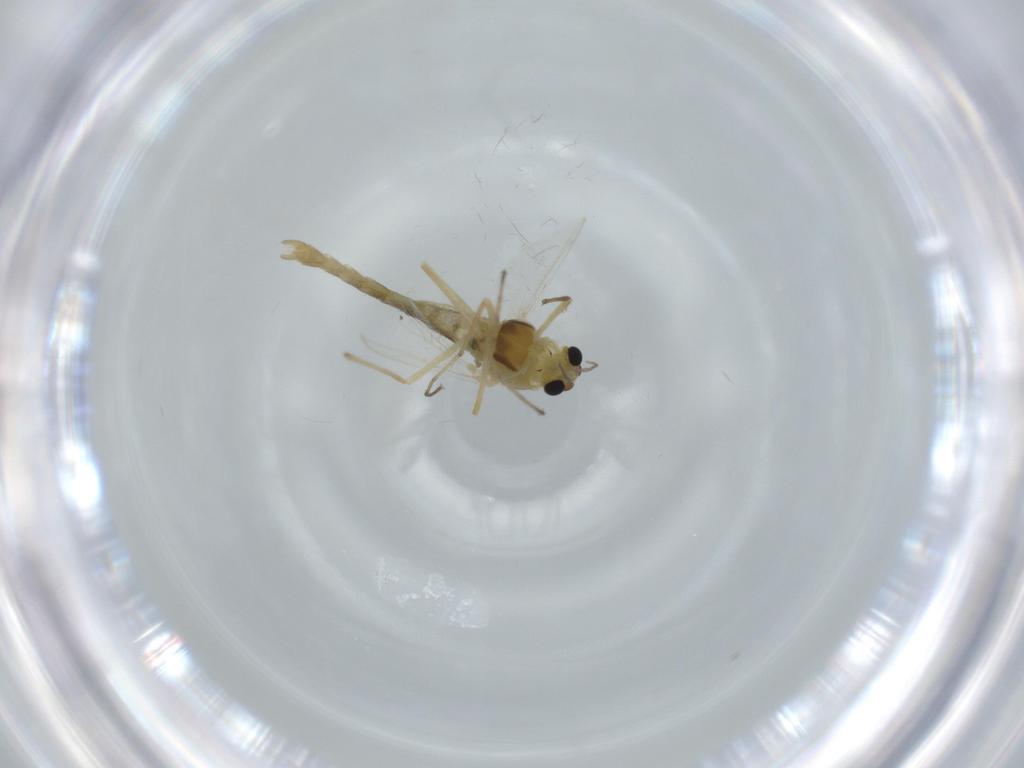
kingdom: Animalia
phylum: Arthropoda
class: Insecta
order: Diptera
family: Chironomidae
